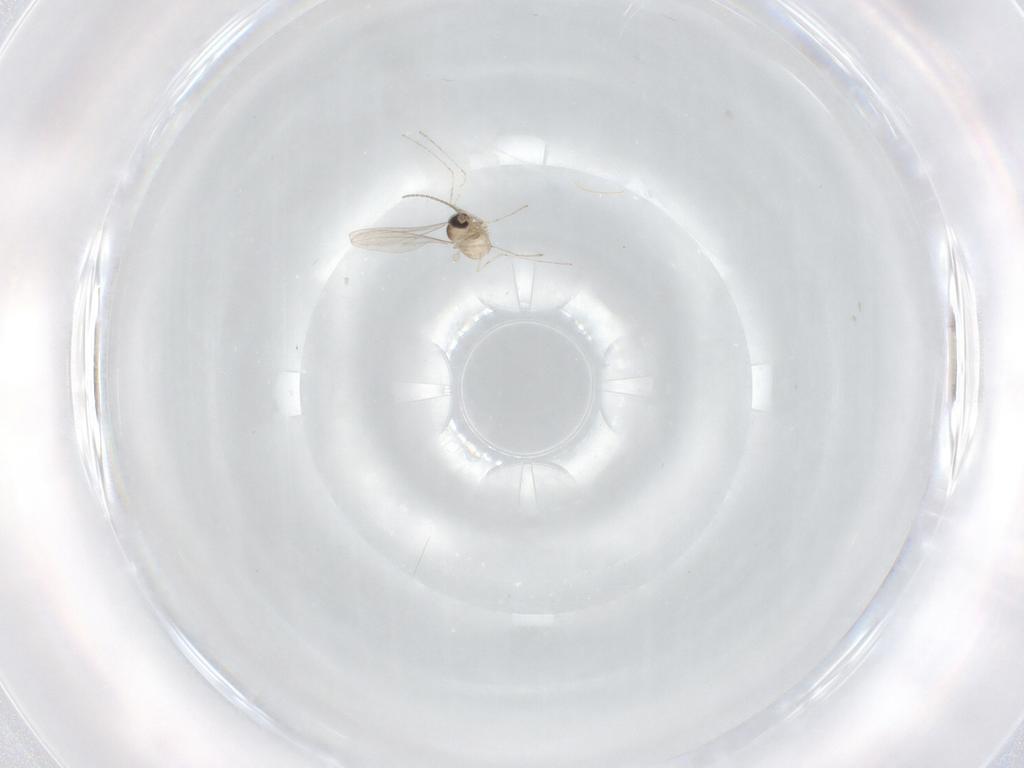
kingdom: Animalia
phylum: Arthropoda
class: Insecta
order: Diptera
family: Cecidomyiidae
